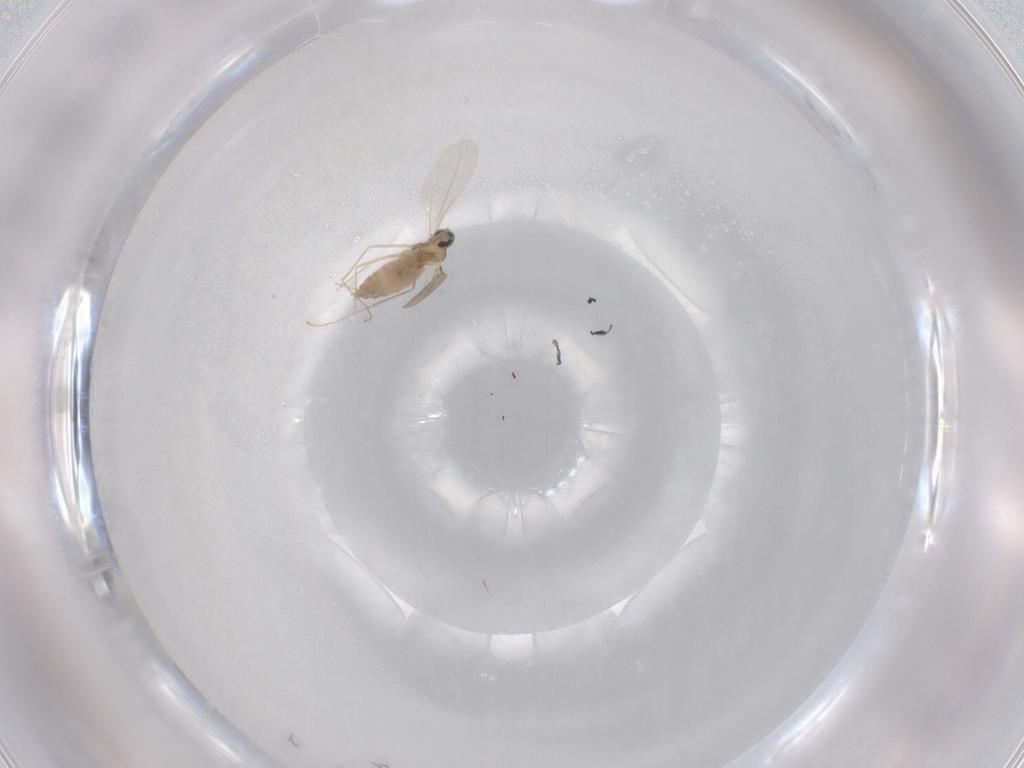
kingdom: Animalia
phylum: Arthropoda
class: Insecta
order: Diptera
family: Cecidomyiidae
